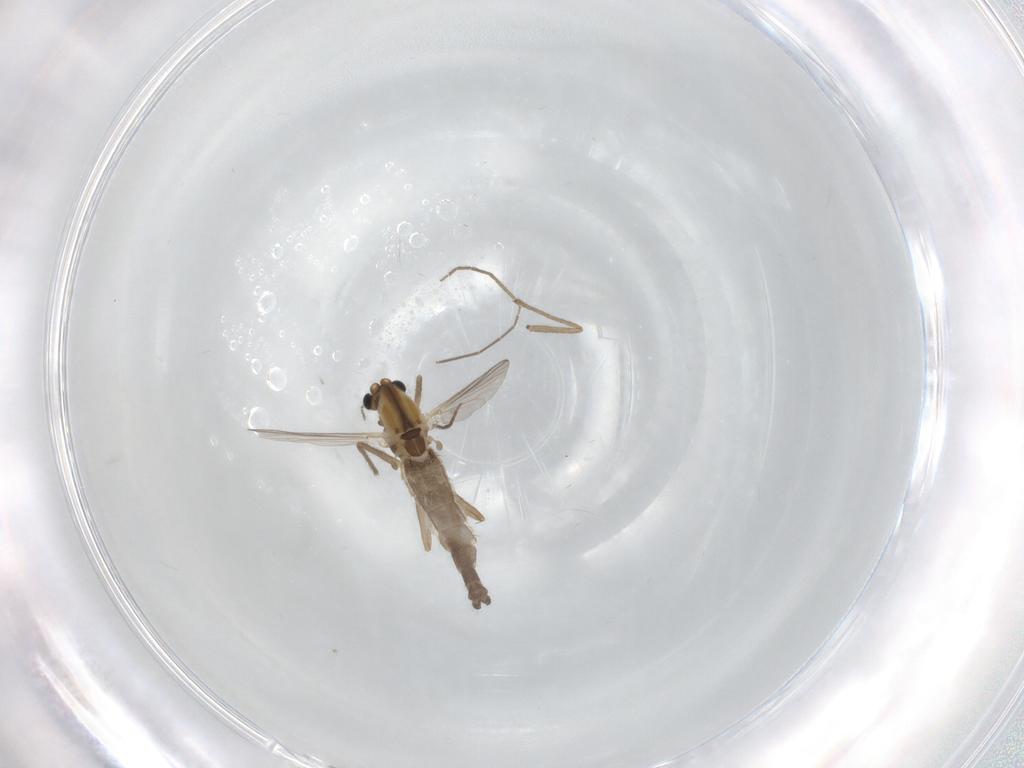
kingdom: Animalia
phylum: Arthropoda
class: Insecta
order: Diptera
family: Chironomidae
